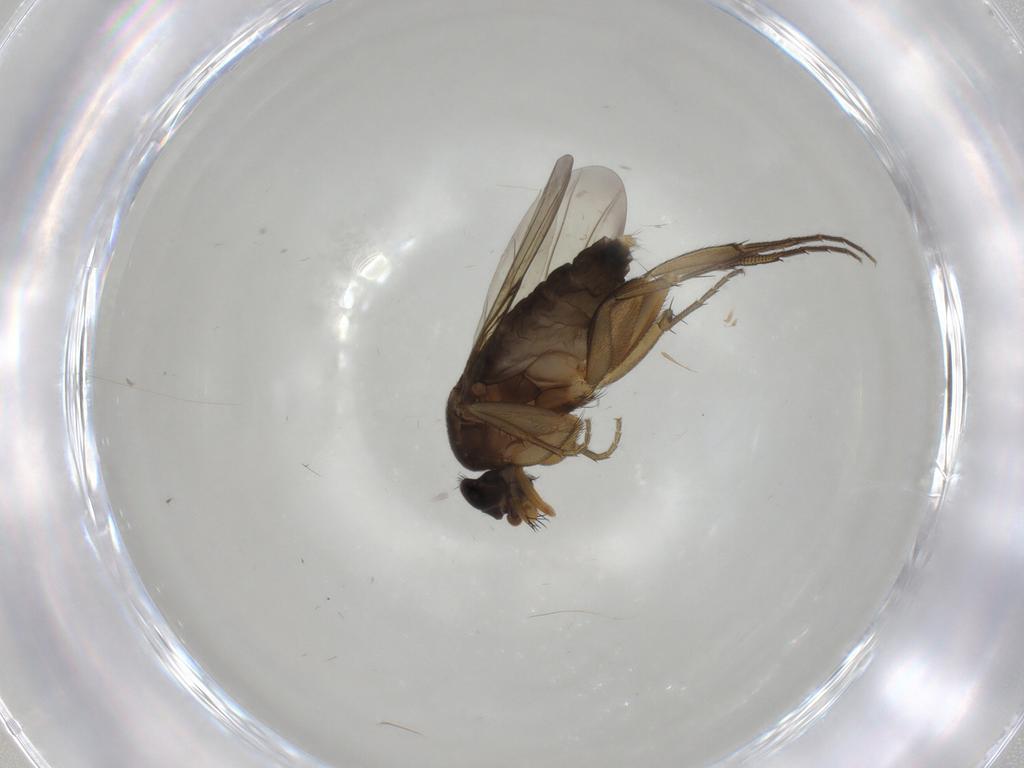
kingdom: Animalia
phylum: Arthropoda
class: Insecta
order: Diptera
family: Phoridae
